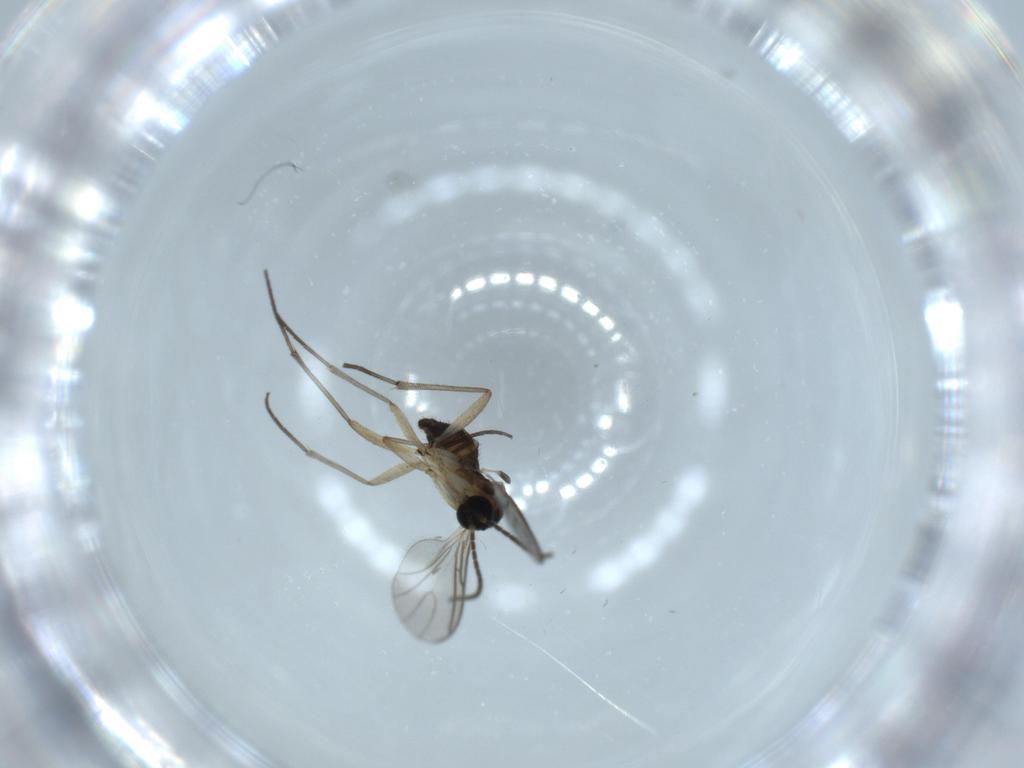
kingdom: Animalia
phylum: Arthropoda
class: Insecta
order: Diptera
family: Sciaridae
